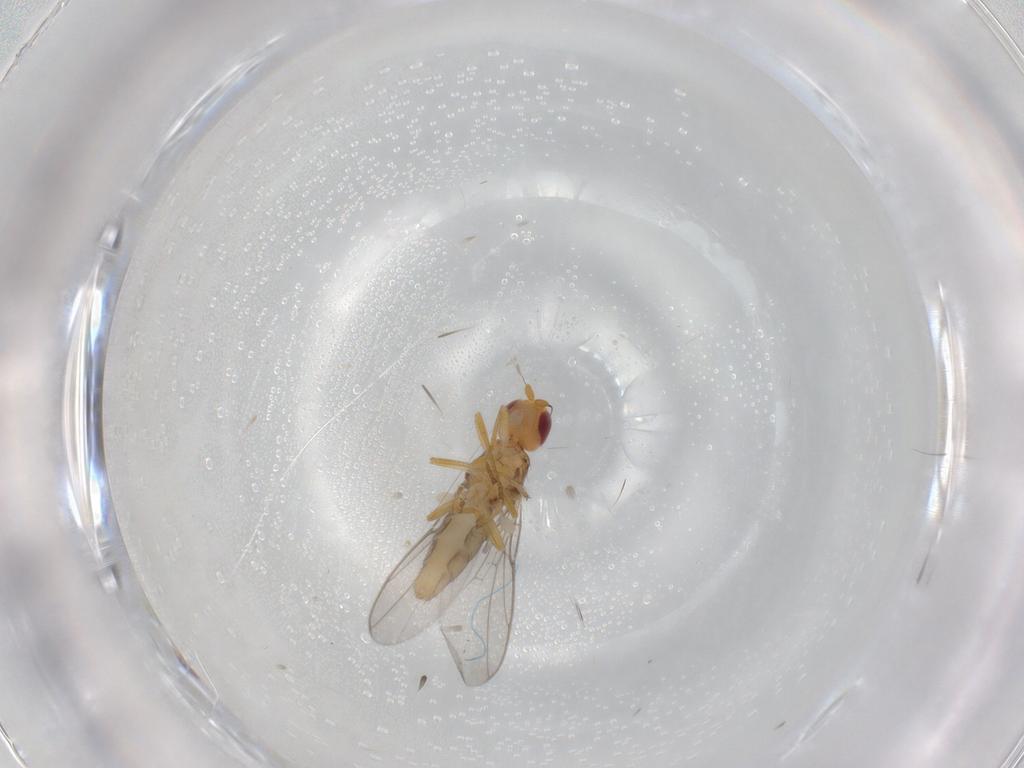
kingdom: Animalia
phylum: Arthropoda
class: Insecta
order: Diptera
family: Chloropidae
